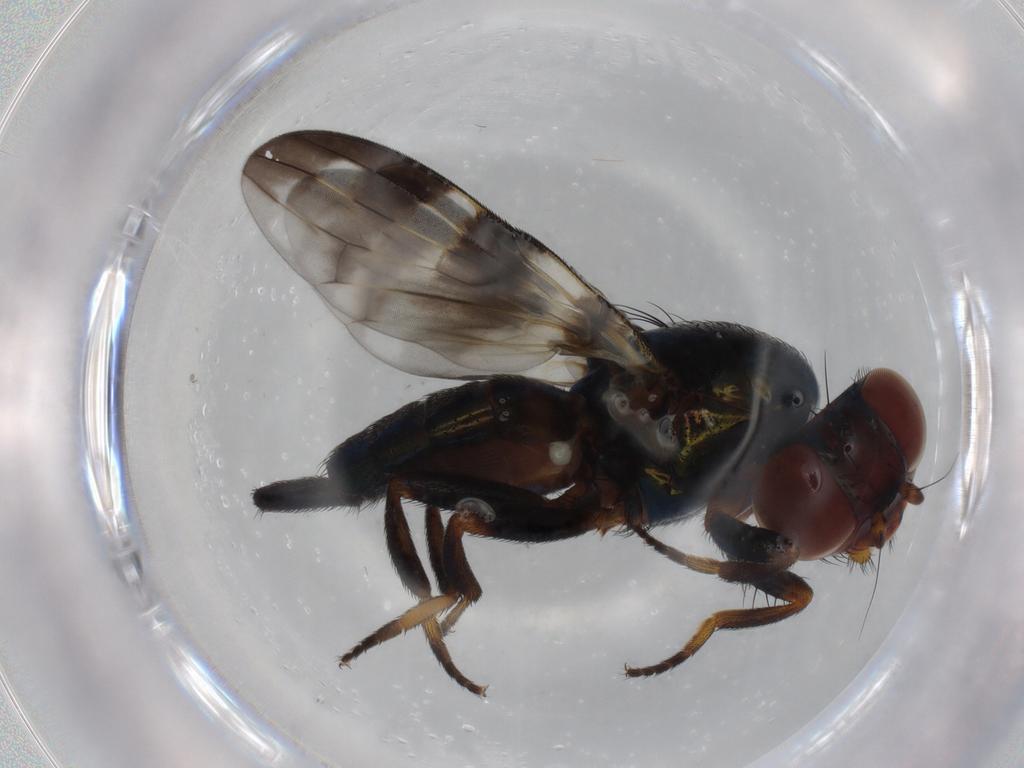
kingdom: Animalia
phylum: Arthropoda
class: Insecta
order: Diptera
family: Ulidiidae
